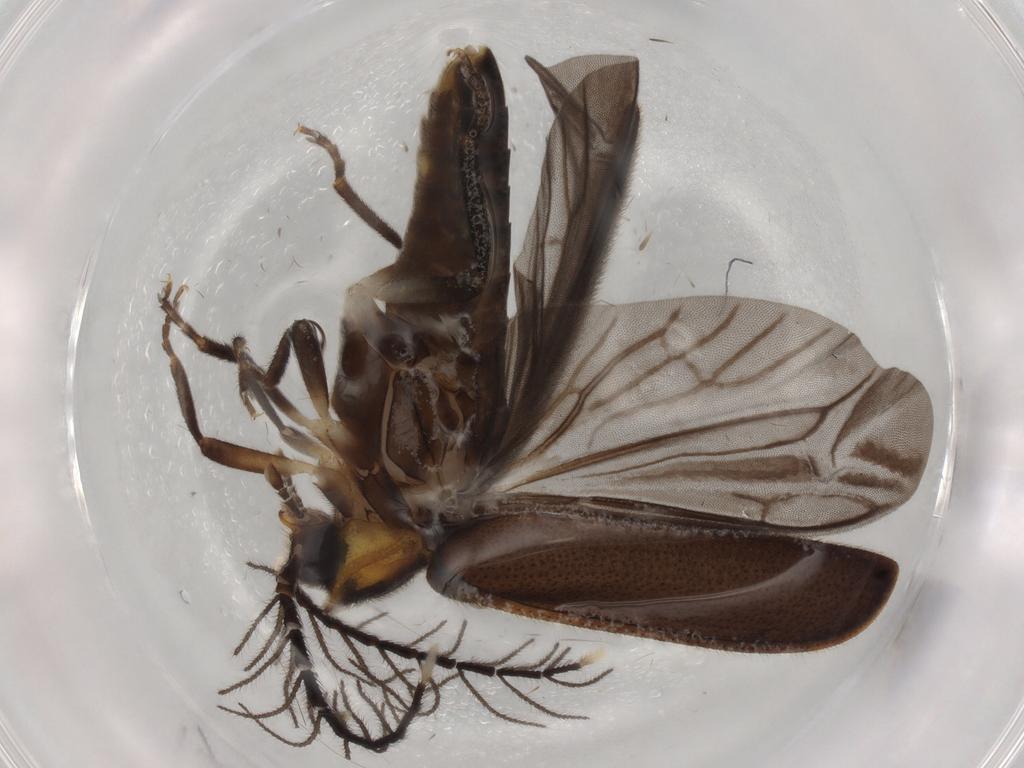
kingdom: Animalia
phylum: Arthropoda
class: Insecta
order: Coleoptera
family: Lampyridae
